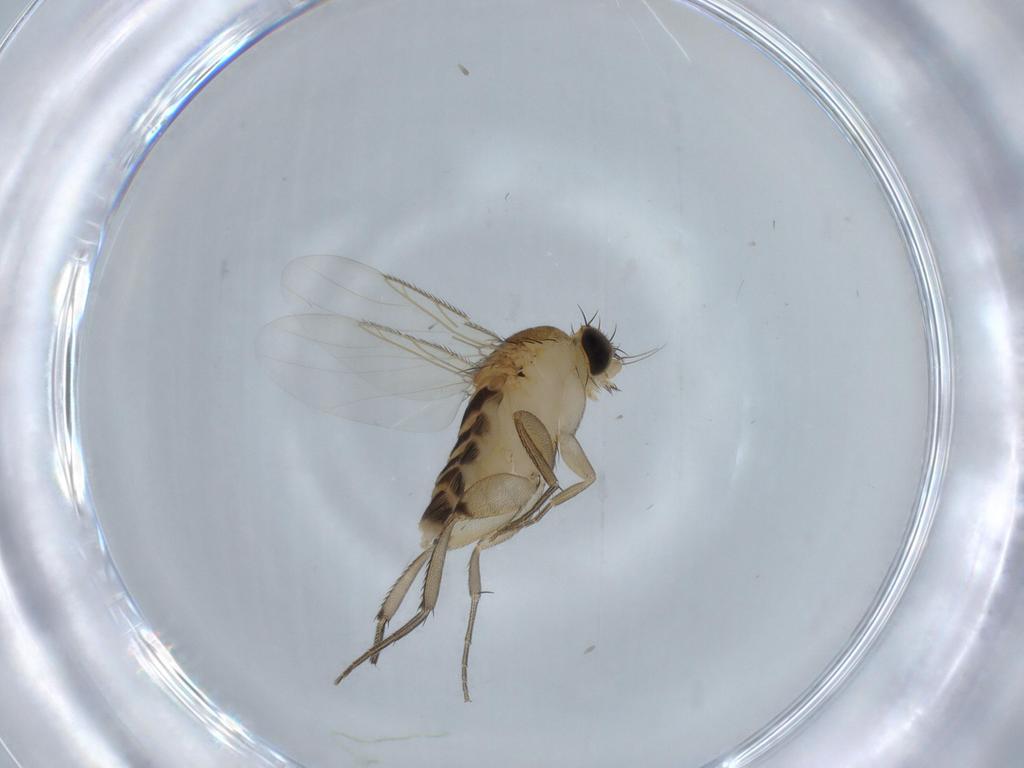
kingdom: Animalia
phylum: Arthropoda
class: Insecta
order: Diptera
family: Phoridae
